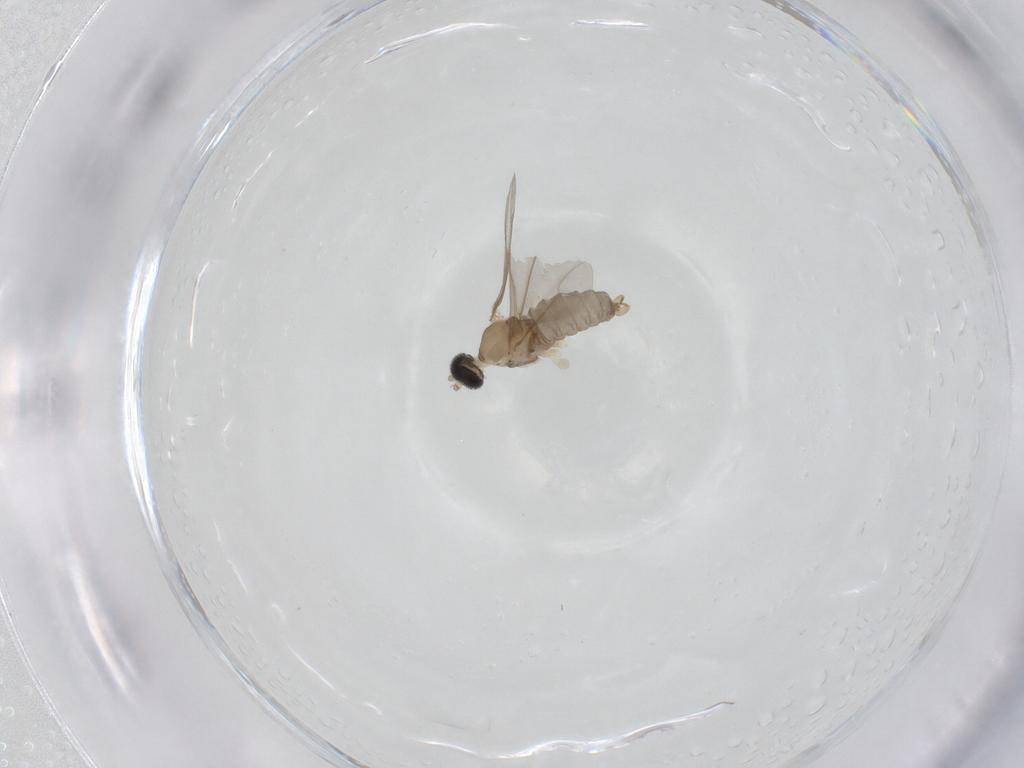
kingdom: Animalia
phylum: Arthropoda
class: Insecta
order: Diptera
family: Cecidomyiidae
